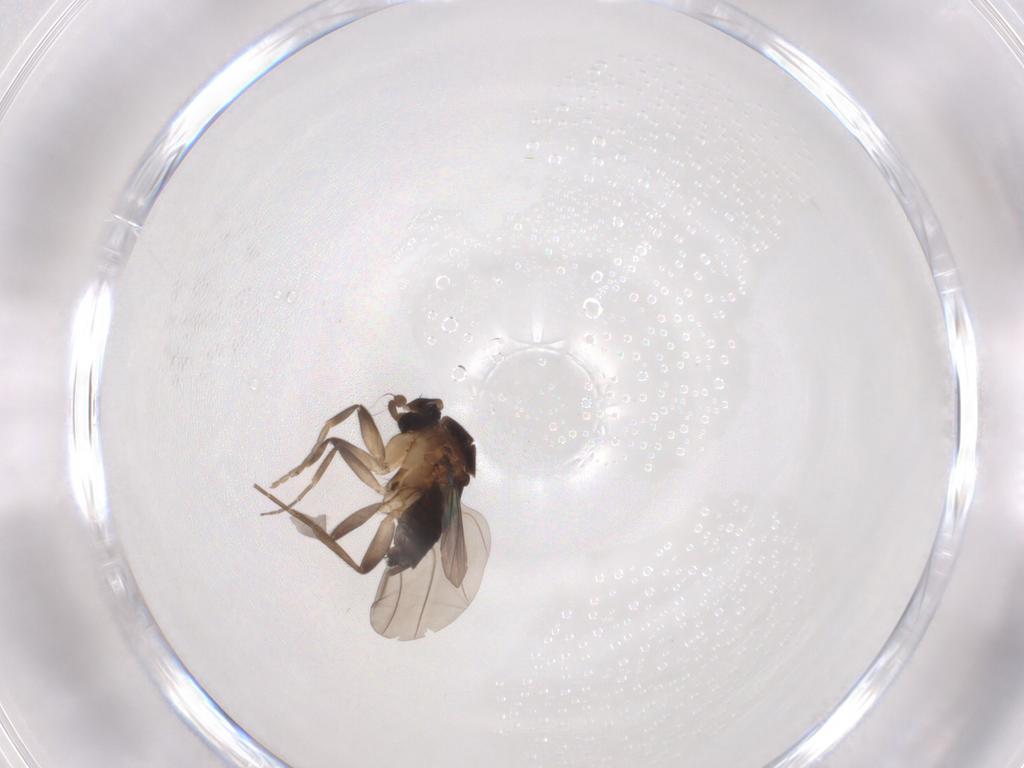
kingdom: Animalia
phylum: Arthropoda
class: Insecta
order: Diptera
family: Phoridae
